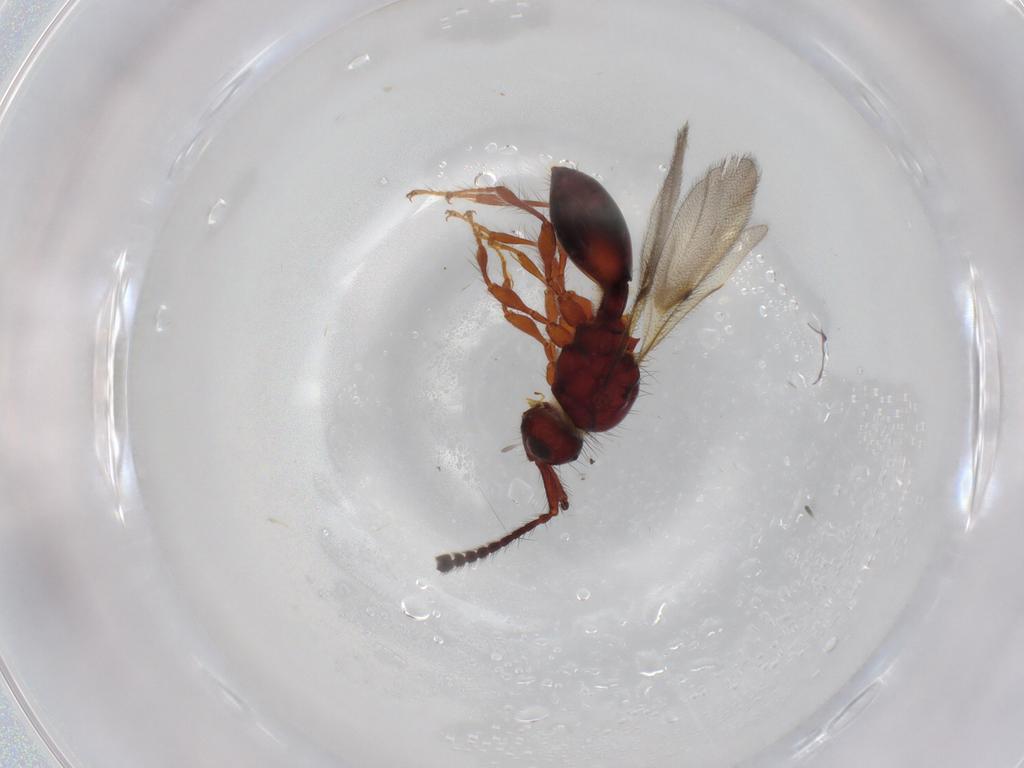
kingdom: Animalia
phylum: Arthropoda
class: Insecta
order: Hymenoptera
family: Diapriidae
